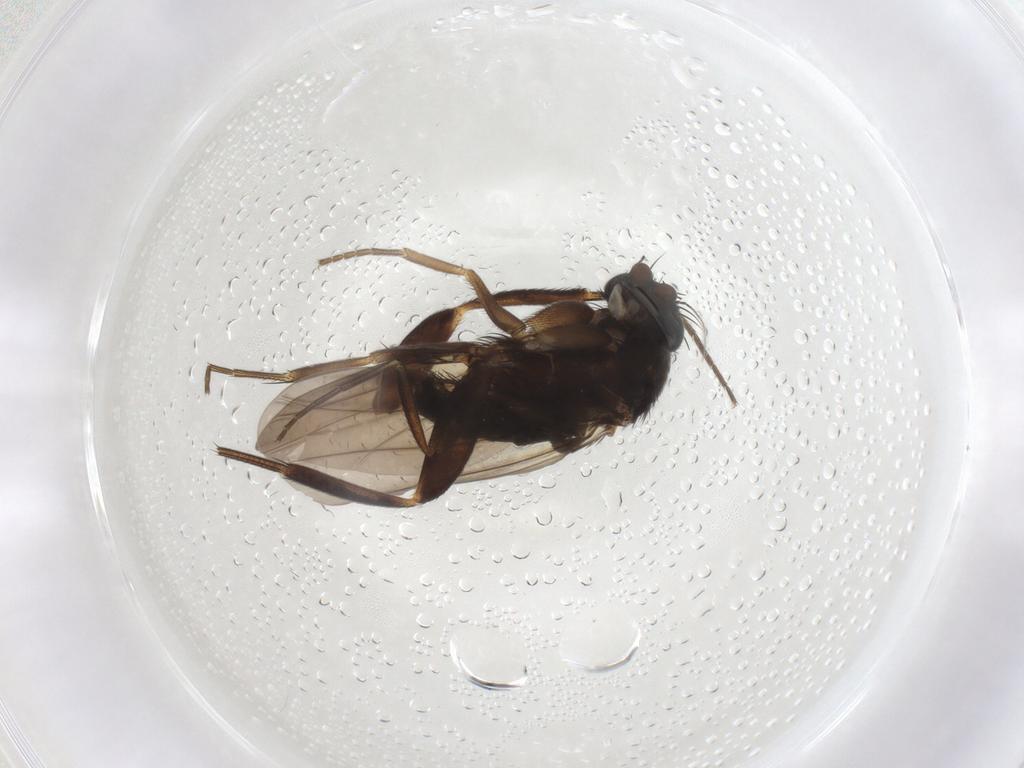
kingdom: Animalia
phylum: Arthropoda
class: Insecta
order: Diptera
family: Phoridae
